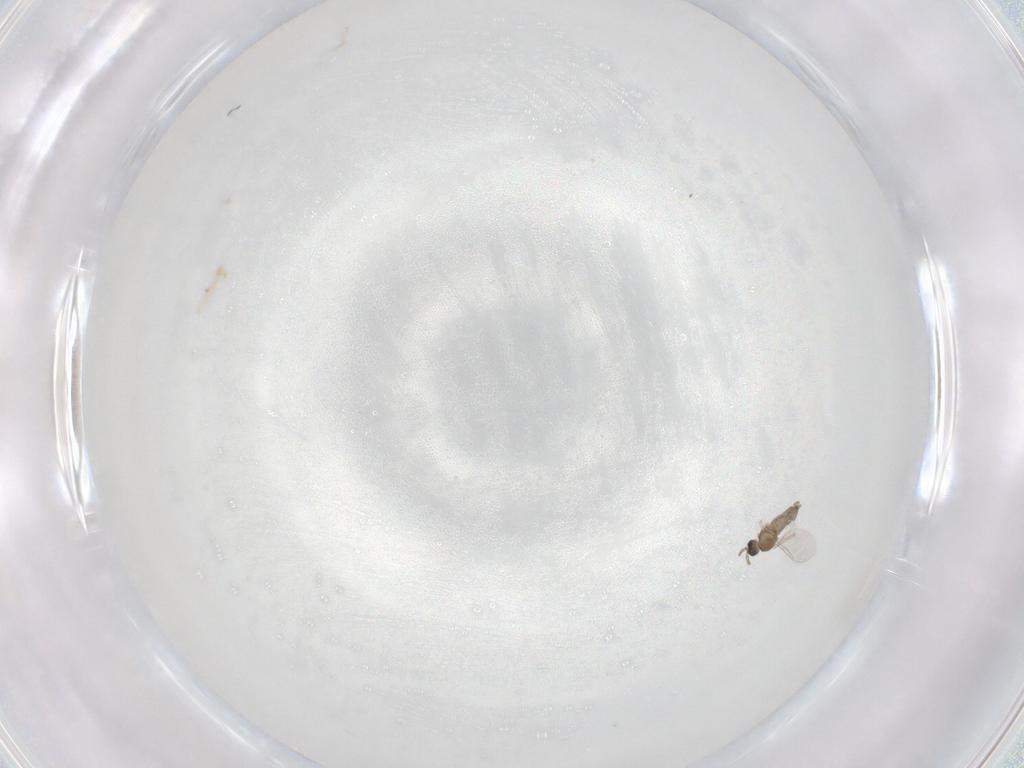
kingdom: Animalia
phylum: Arthropoda
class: Insecta
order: Diptera
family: Cecidomyiidae
